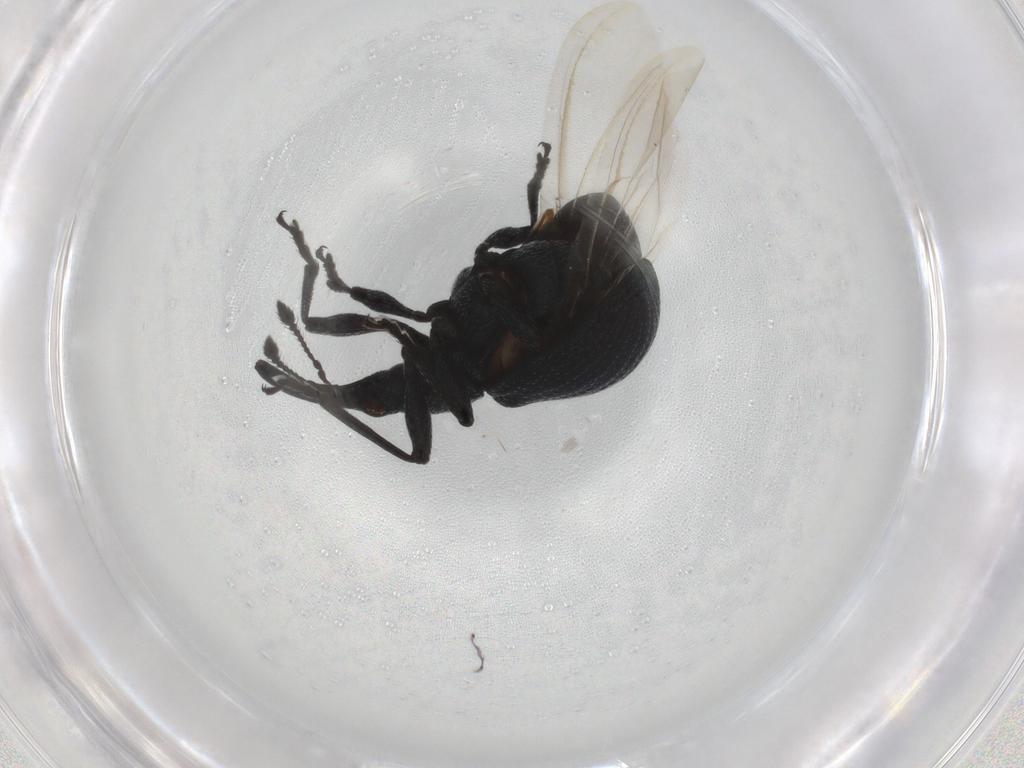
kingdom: Animalia
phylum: Arthropoda
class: Insecta
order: Coleoptera
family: Brentidae
